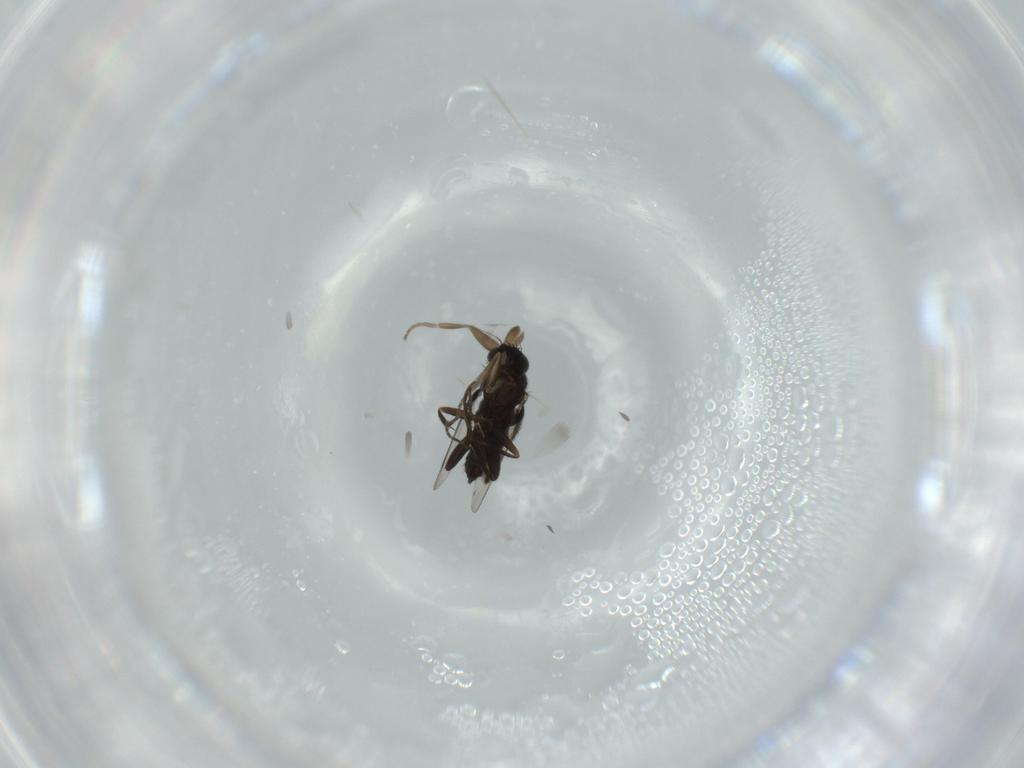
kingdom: Animalia
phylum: Arthropoda
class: Insecta
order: Diptera
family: Phoridae
